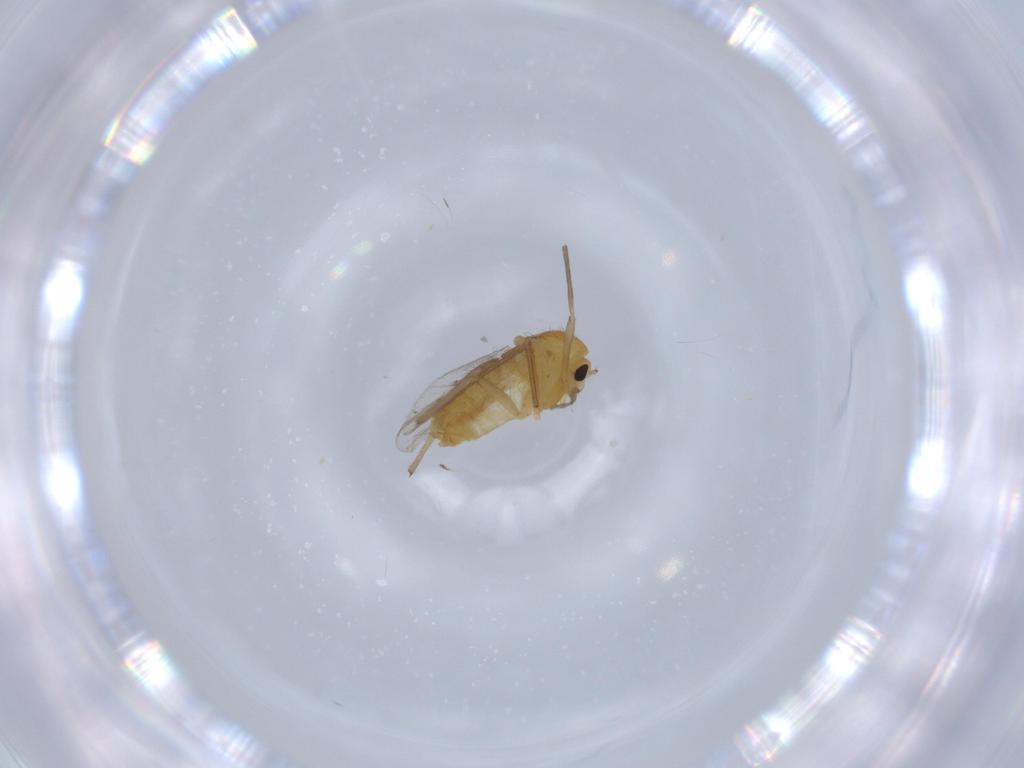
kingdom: Animalia
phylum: Arthropoda
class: Insecta
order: Diptera
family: Chironomidae
